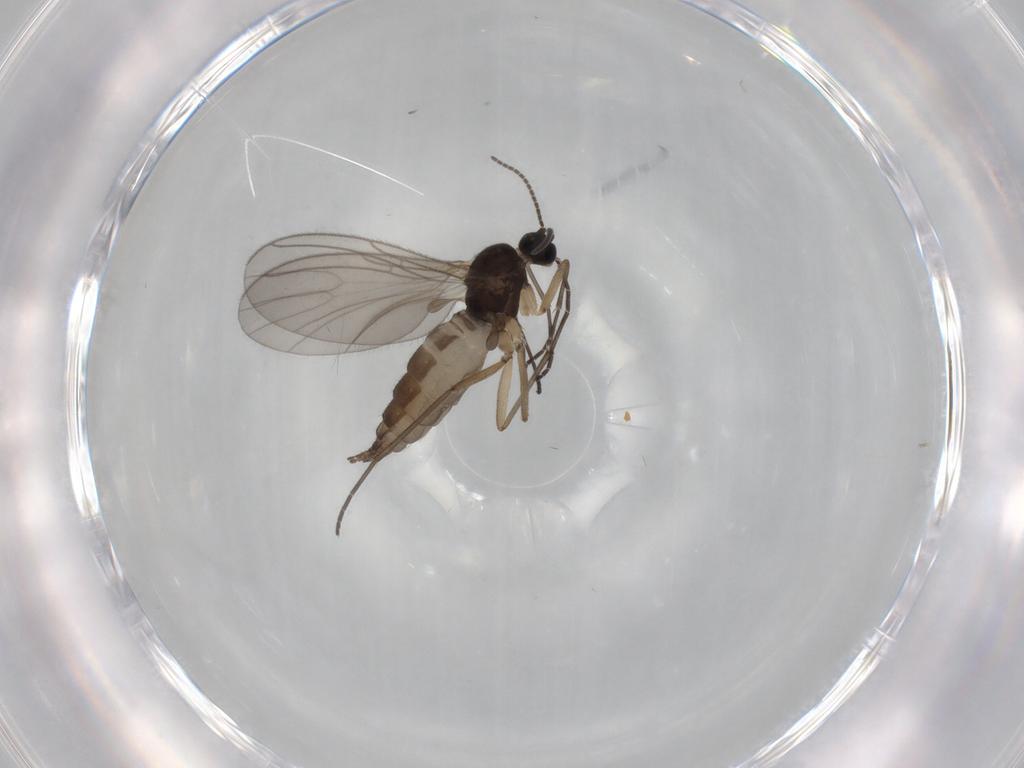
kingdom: Animalia
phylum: Arthropoda
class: Insecta
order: Diptera
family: Sciaridae
